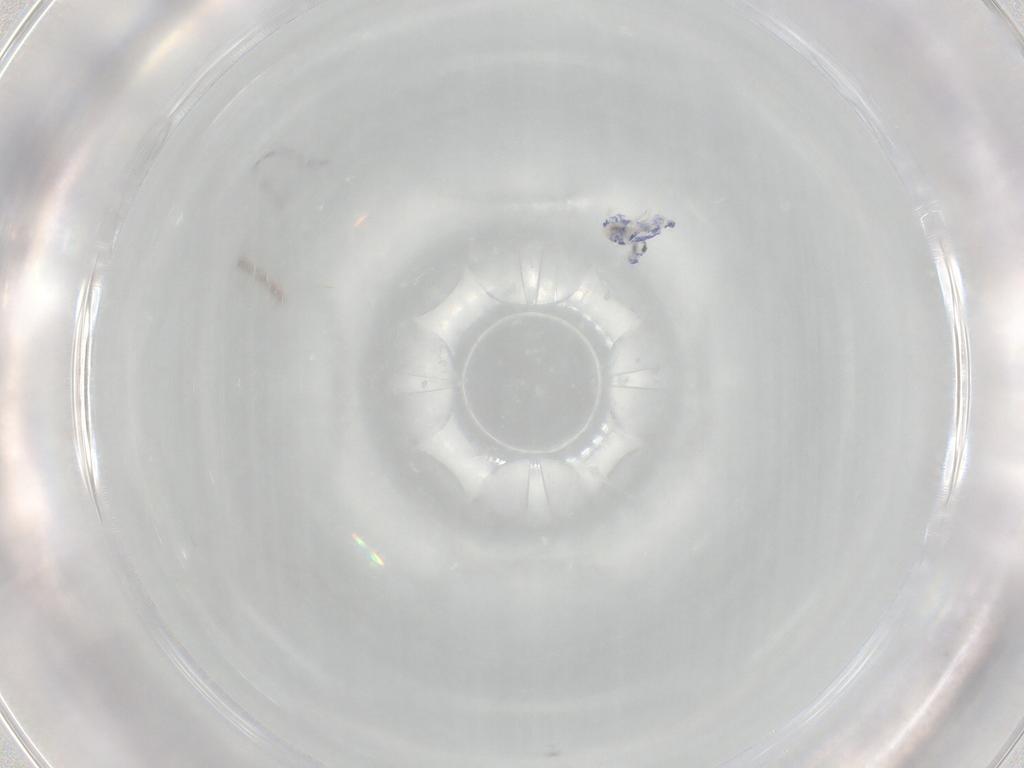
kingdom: Animalia
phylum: Arthropoda
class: Collembola
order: Entomobryomorpha
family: Entomobryidae
